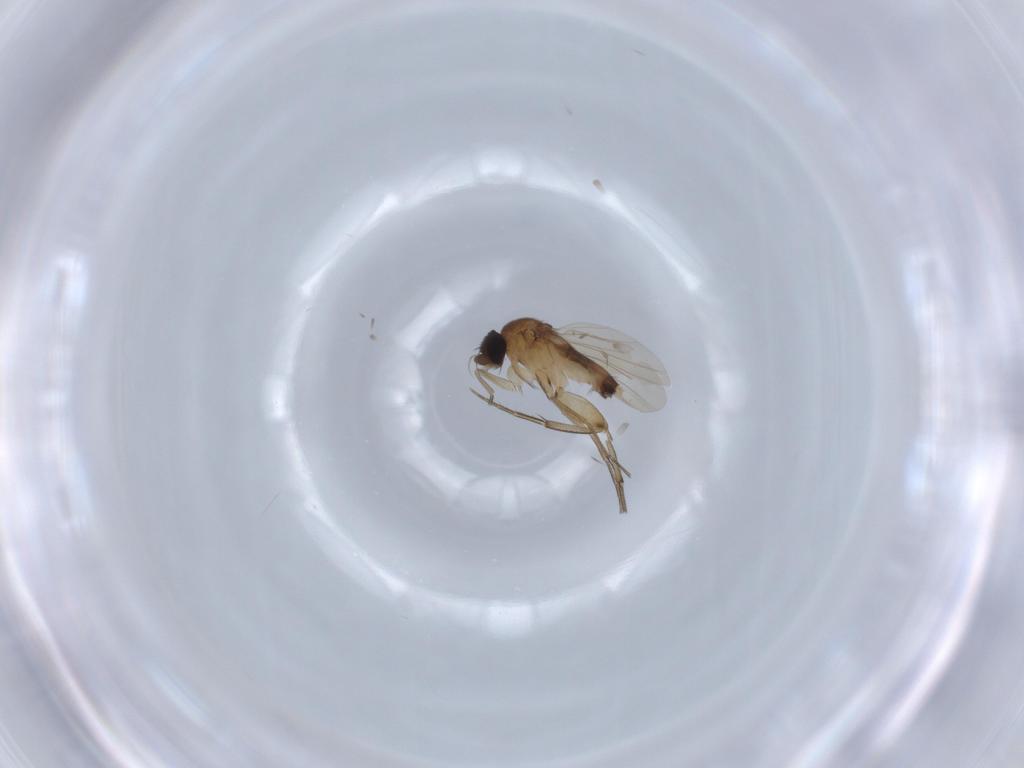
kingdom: Animalia
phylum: Arthropoda
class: Insecta
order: Diptera
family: Phoridae
